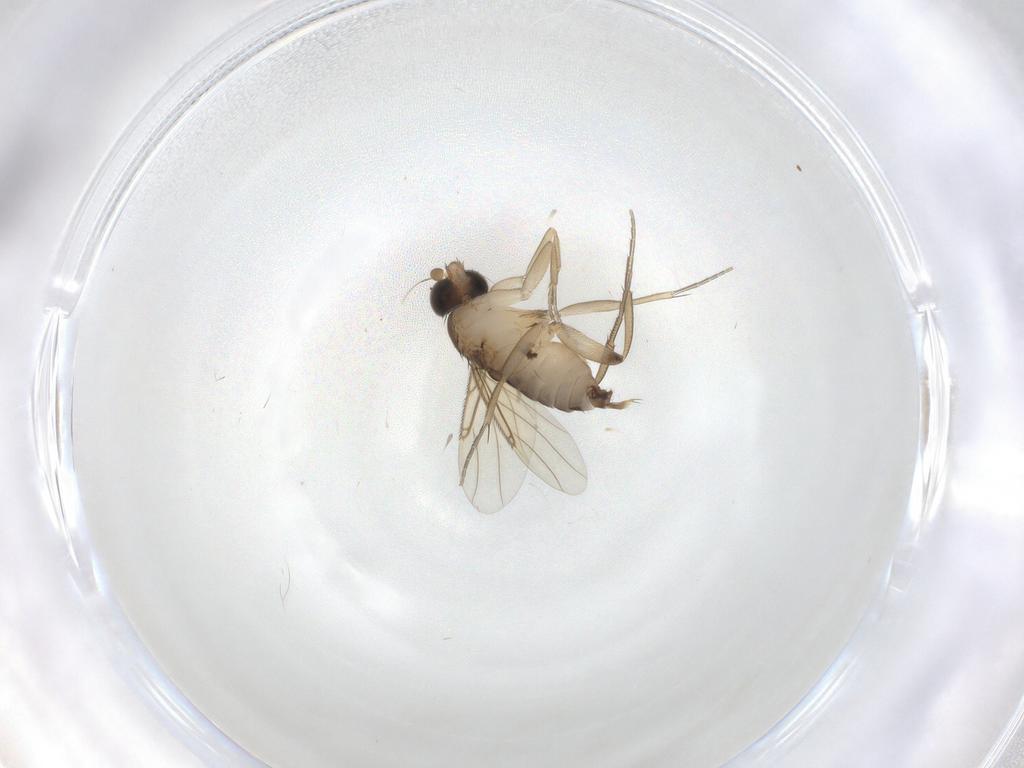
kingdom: Animalia
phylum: Arthropoda
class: Insecta
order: Diptera
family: Phoridae
